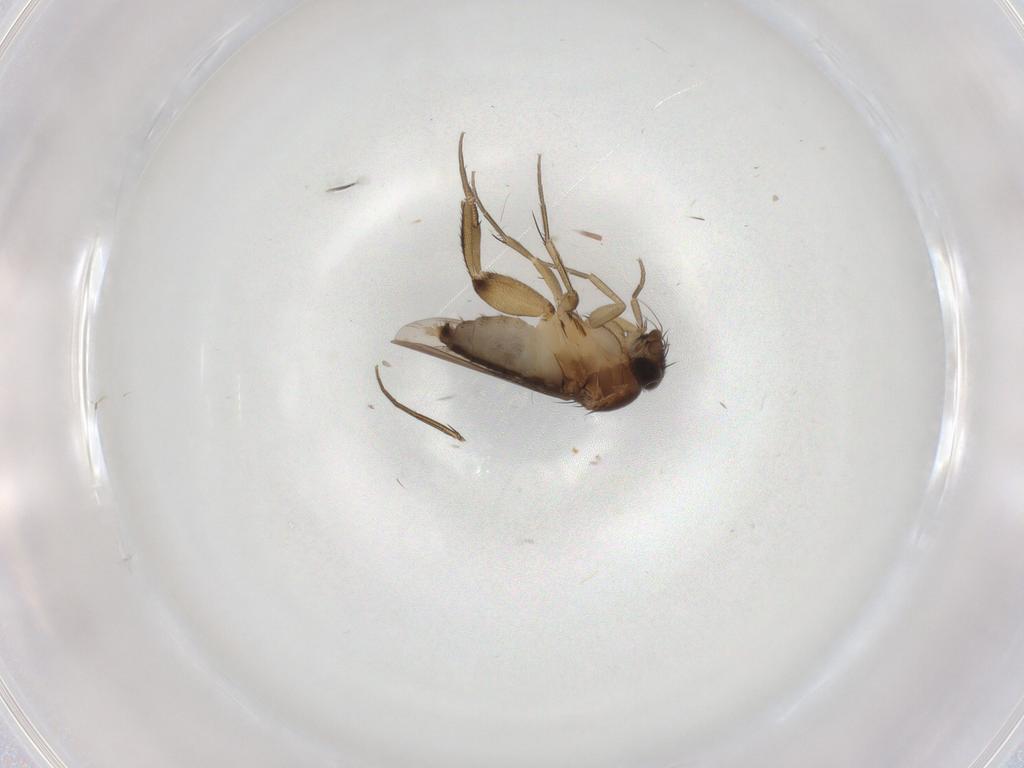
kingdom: Animalia
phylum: Arthropoda
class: Insecta
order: Diptera
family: Phoridae
